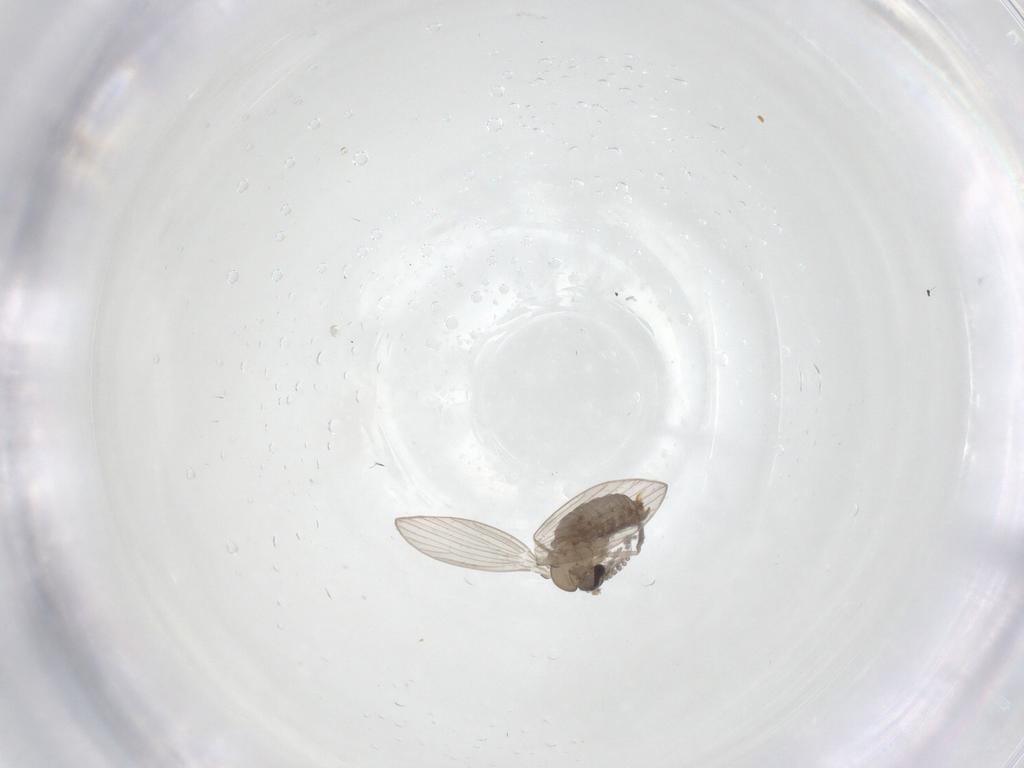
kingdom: Animalia
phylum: Arthropoda
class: Insecta
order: Diptera
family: Psychodidae
